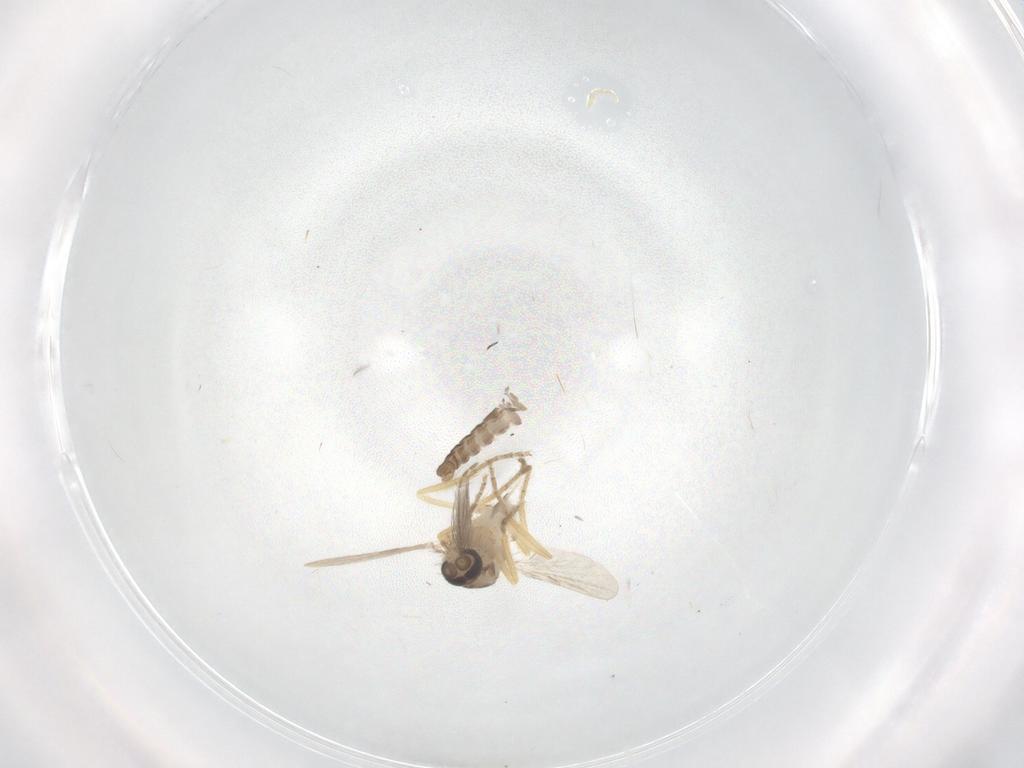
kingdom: Animalia
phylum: Arthropoda
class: Insecta
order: Diptera
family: Ceratopogonidae
